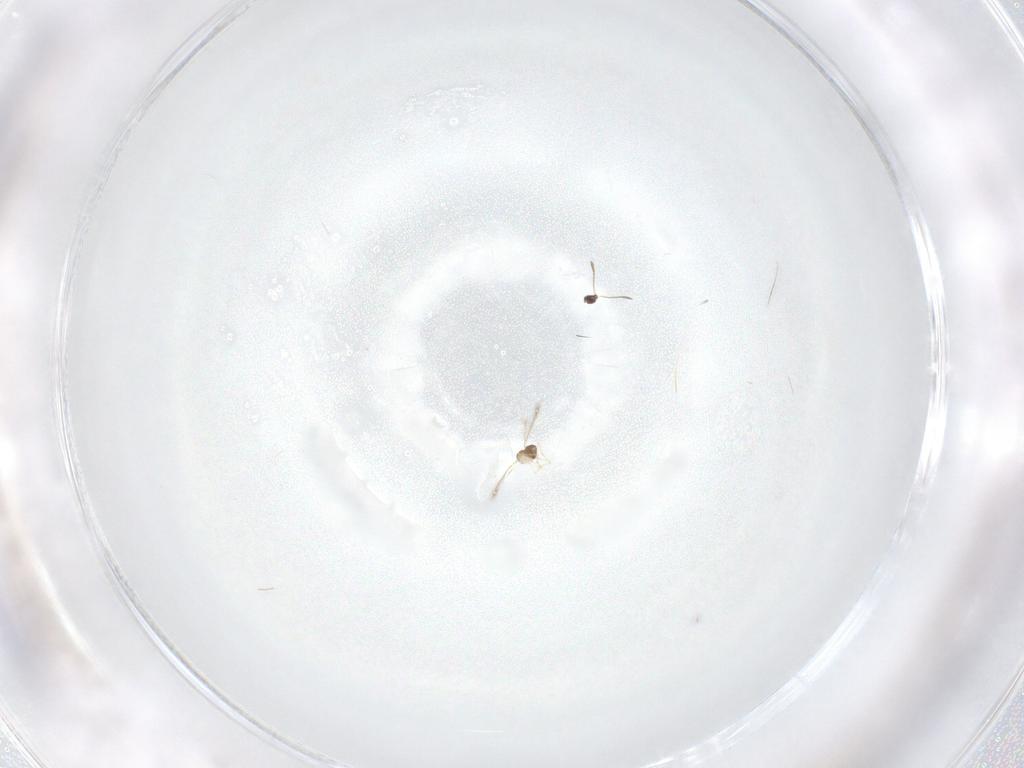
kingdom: Animalia
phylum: Arthropoda
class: Insecta
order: Hymenoptera
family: Mymaridae
